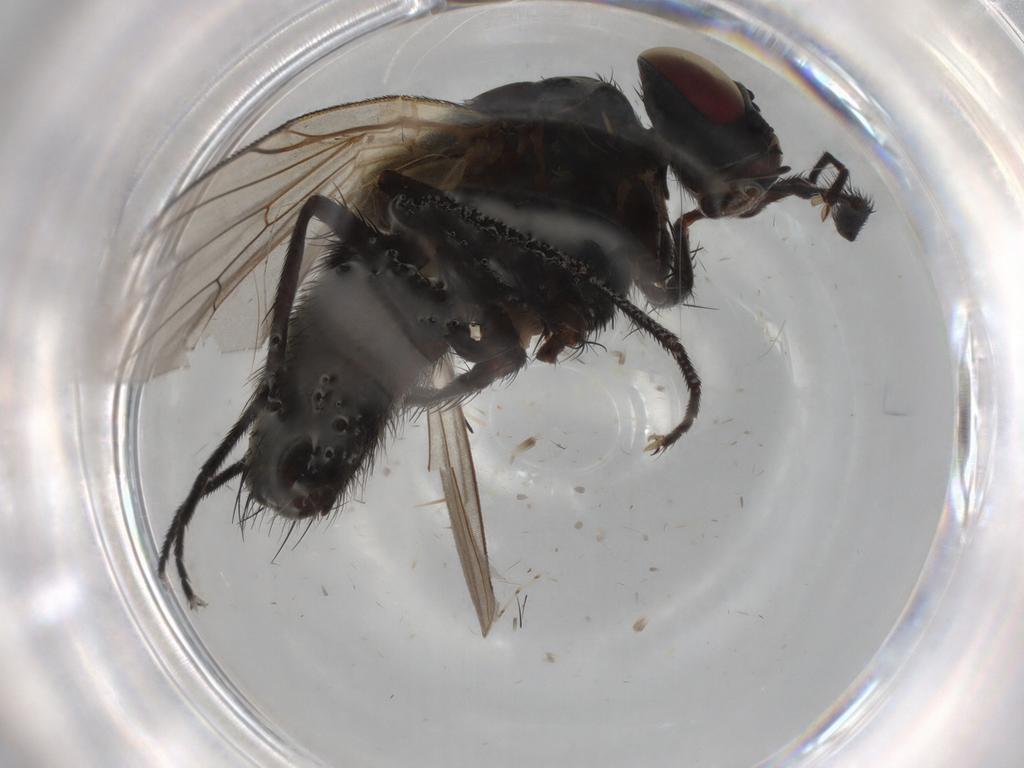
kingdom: Animalia
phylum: Arthropoda
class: Insecta
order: Diptera
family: Muscidae
